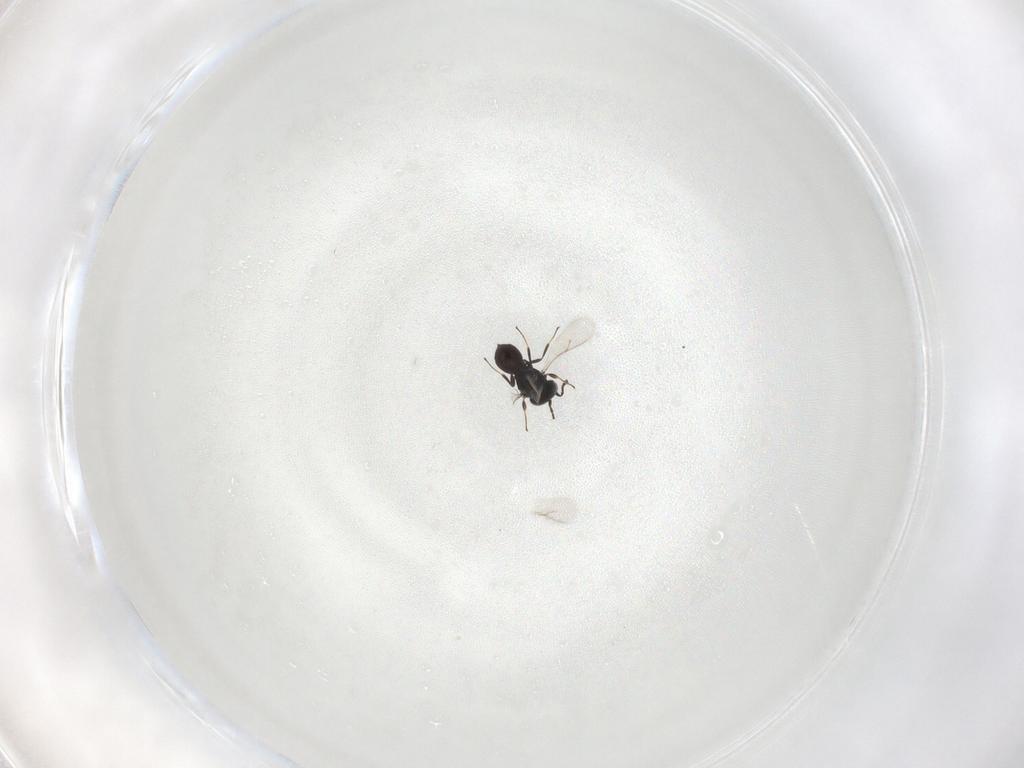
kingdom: Animalia
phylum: Arthropoda
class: Insecta
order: Hymenoptera
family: Scelionidae
